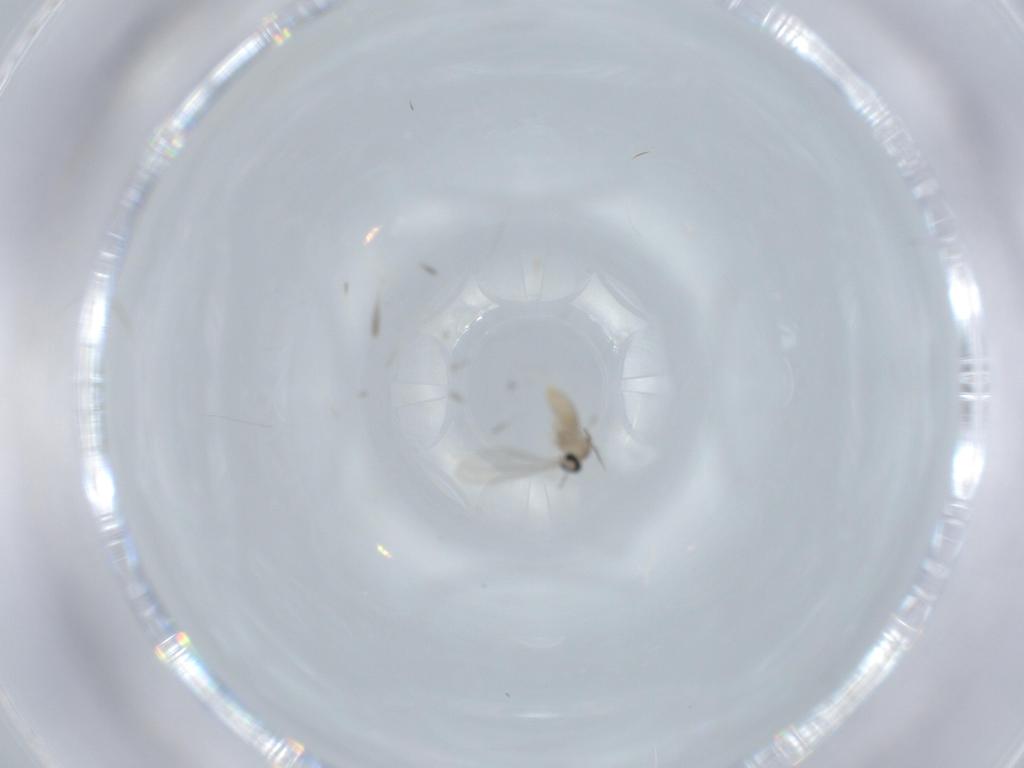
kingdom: Animalia
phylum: Arthropoda
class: Insecta
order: Diptera
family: Cecidomyiidae
